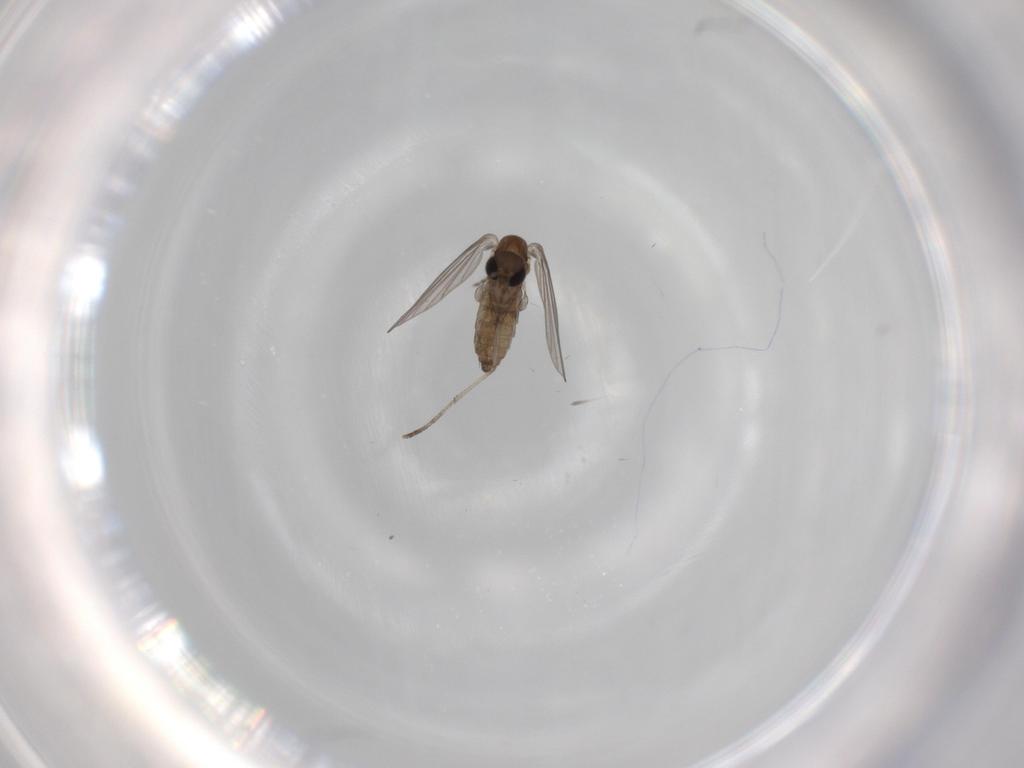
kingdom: Animalia
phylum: Arthropoda
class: Insecta
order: Diptera
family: Psychodidae
